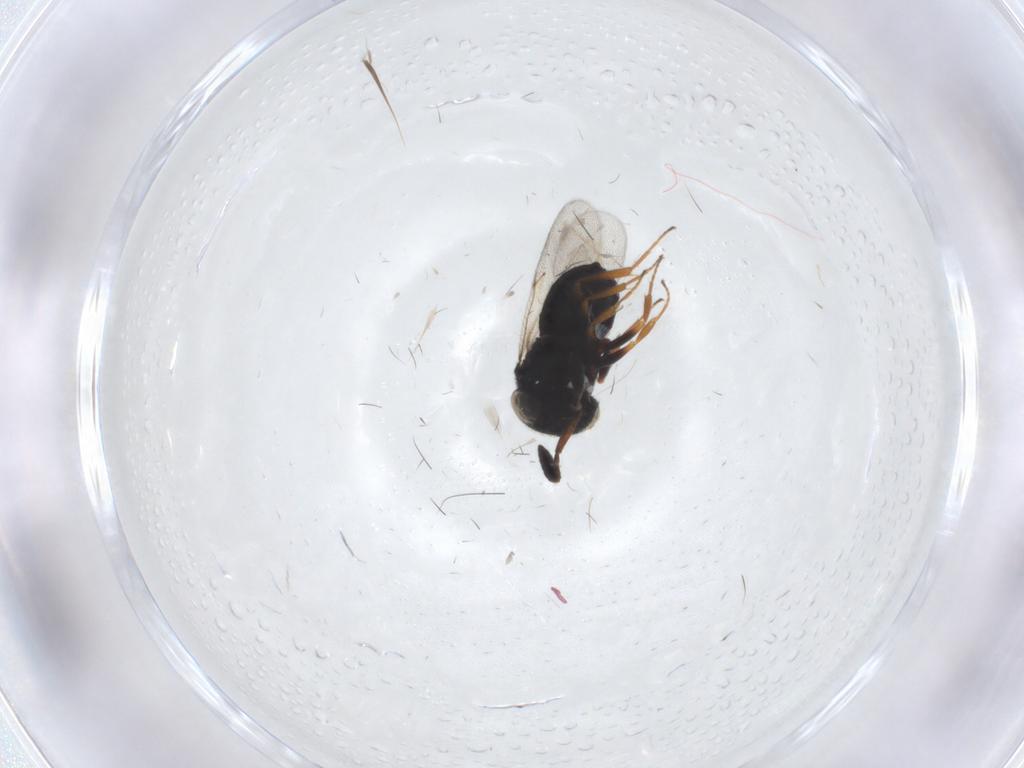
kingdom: Animalia
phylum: Arthropoda
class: Insecta
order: Hymenoptera
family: Scelionidae
